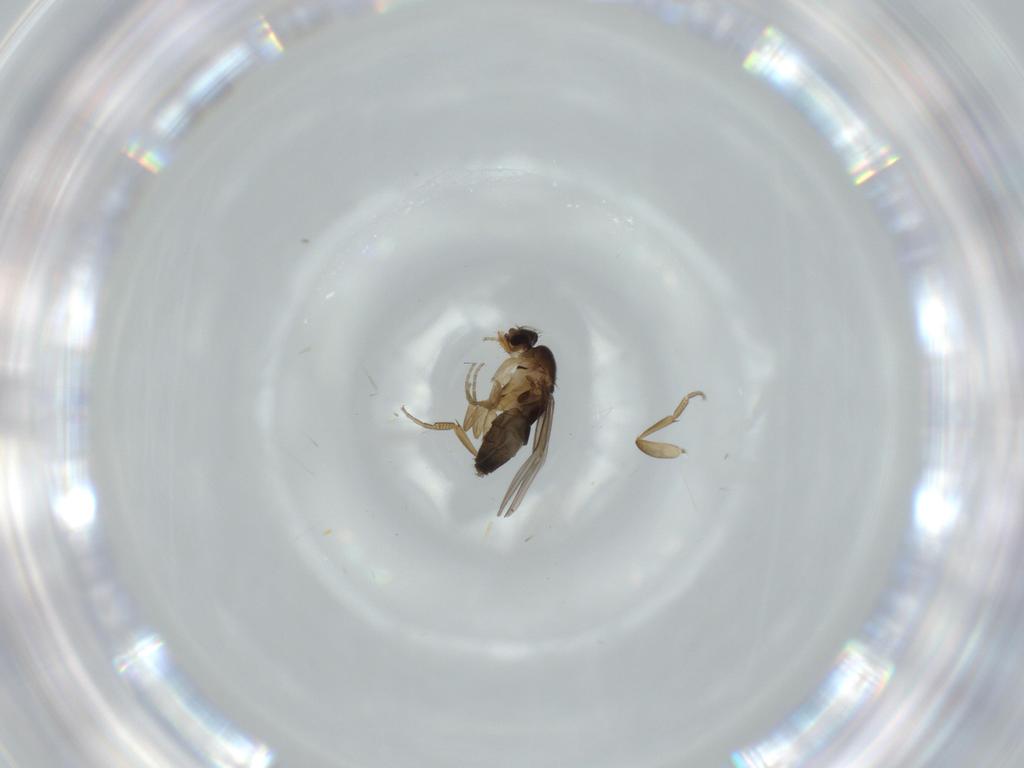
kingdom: Animalia
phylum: Arthropoda
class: Insecta
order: Diptera
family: Phoridae
